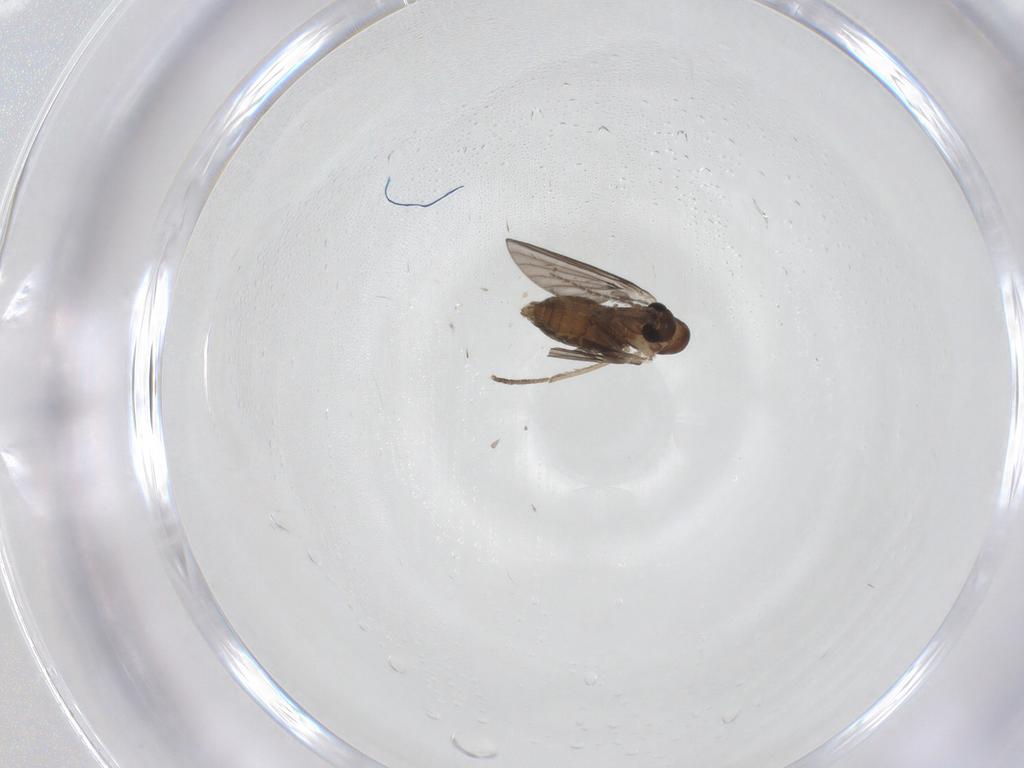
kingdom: Animalia
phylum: Arthropoda
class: Insecta
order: Diptera
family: Psychodidae
